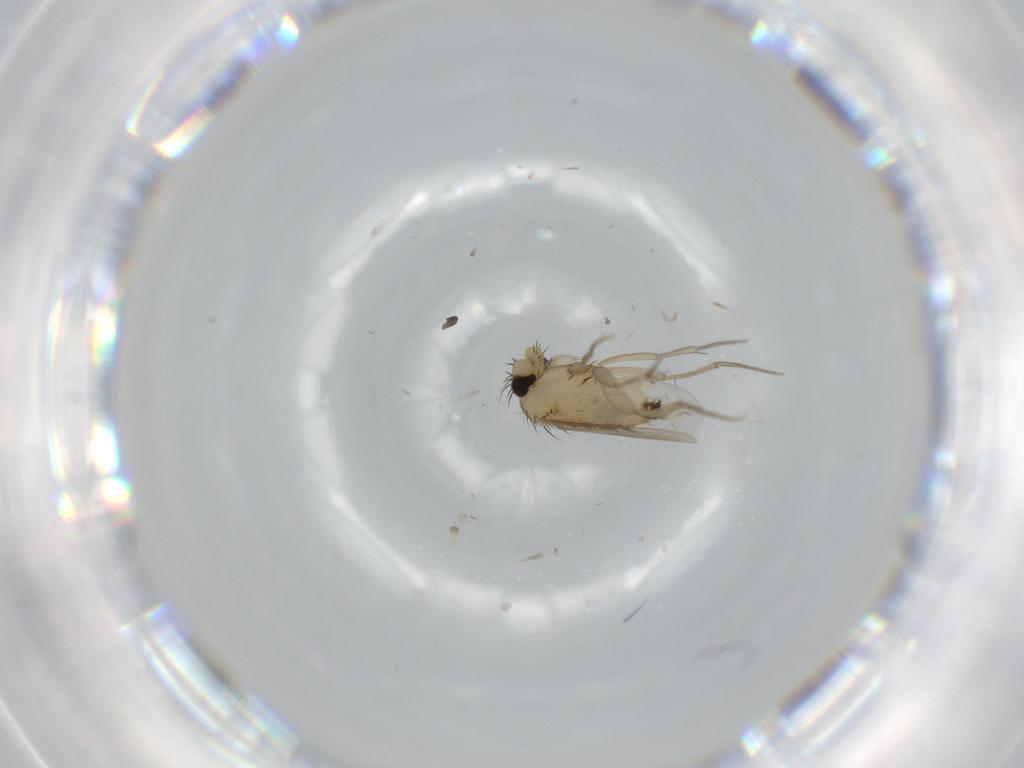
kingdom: Animalia
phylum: Arthropoda
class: Insecta
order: Diptera
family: Phoridae
